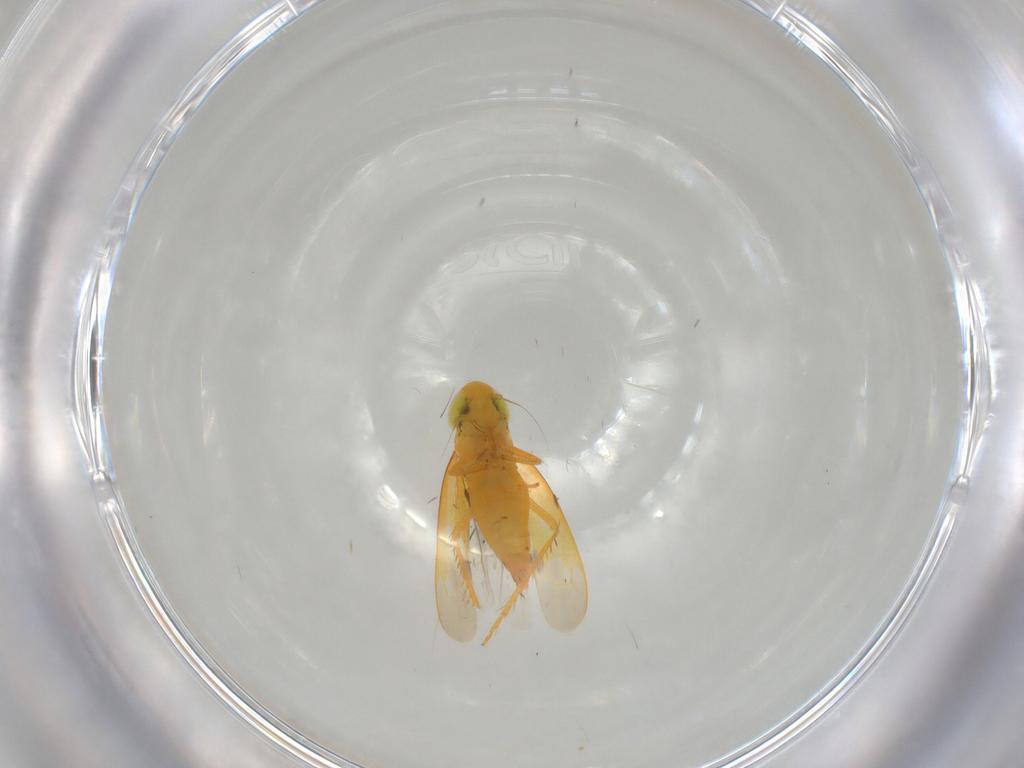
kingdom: Animalia
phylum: Arthropoda
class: Insecta
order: Hemiptera
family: Cicadellidae
